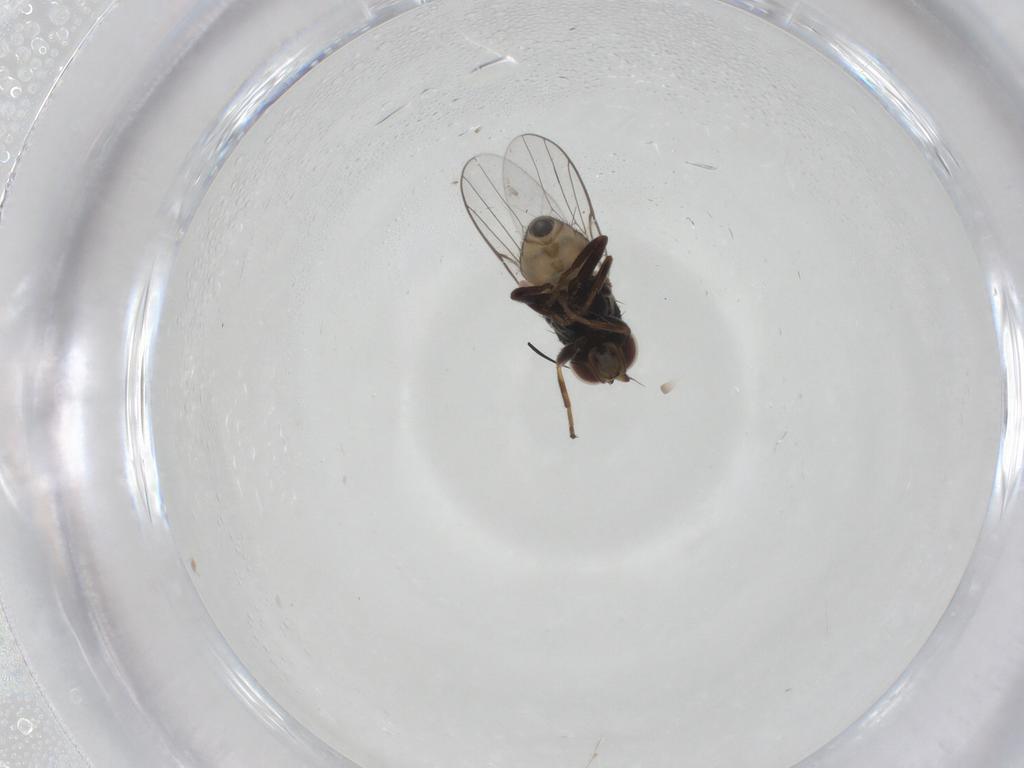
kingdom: Animalia
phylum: Arthropoda
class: Insecta
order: Diptera
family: Chloropidae
